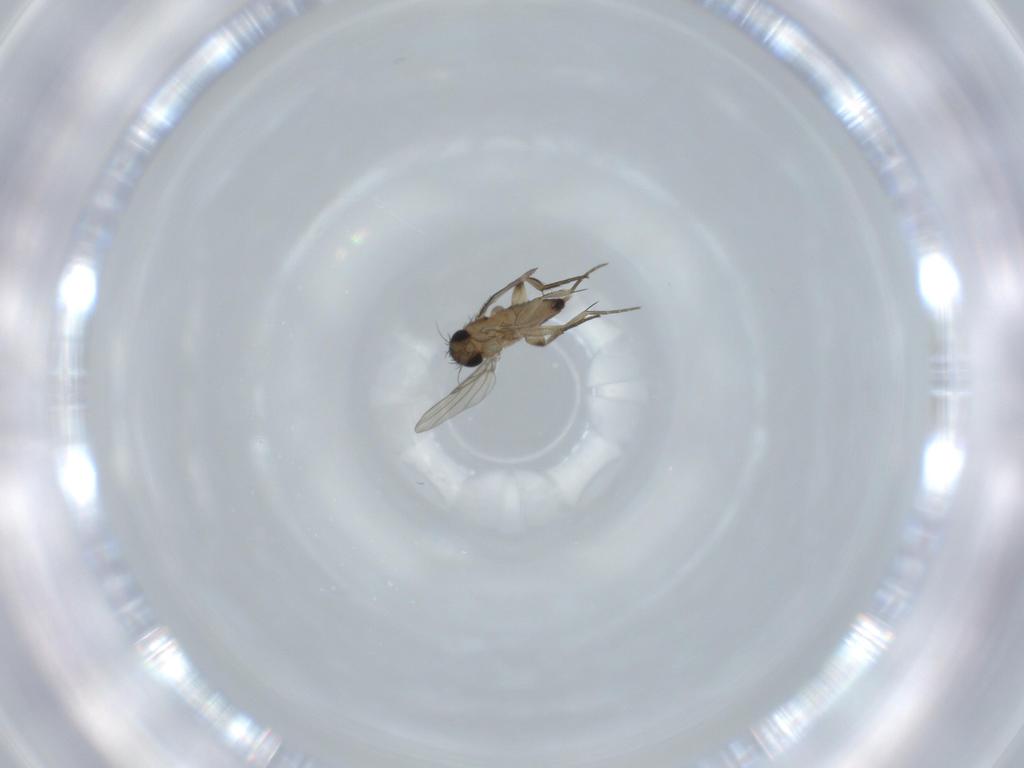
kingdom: Animalia
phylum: Arthropoda
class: Insecta
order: Diptera
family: Phoridae
